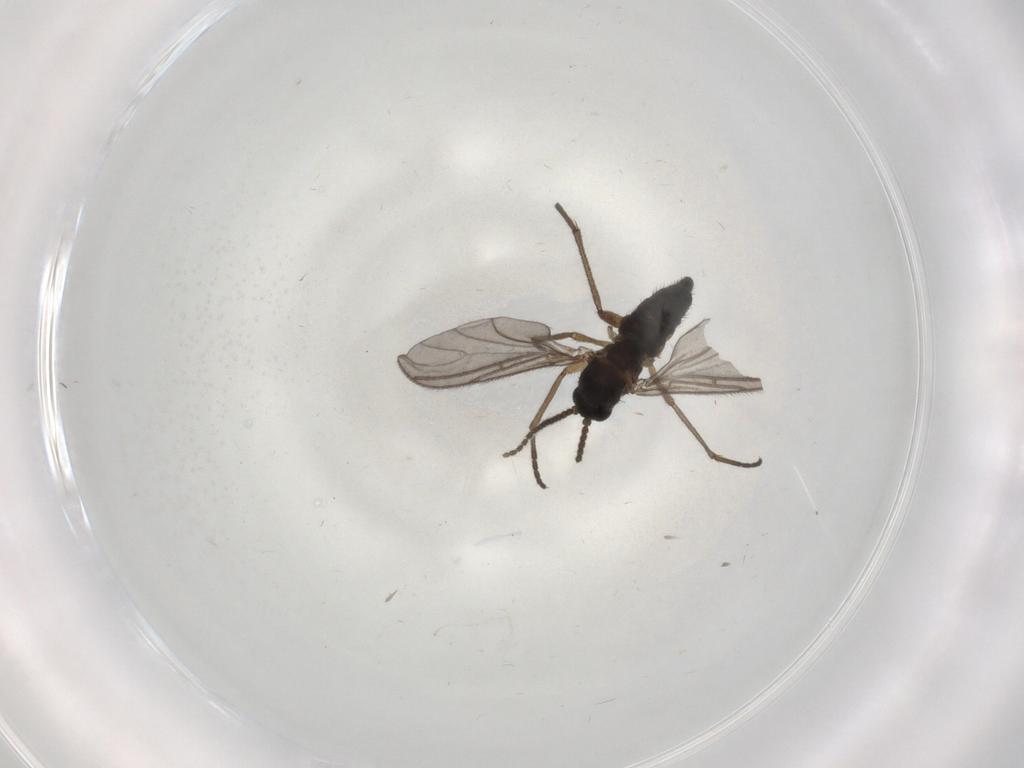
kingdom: Animalia
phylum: Arthropoda
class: Insecta
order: Diptera
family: Sciaridae
